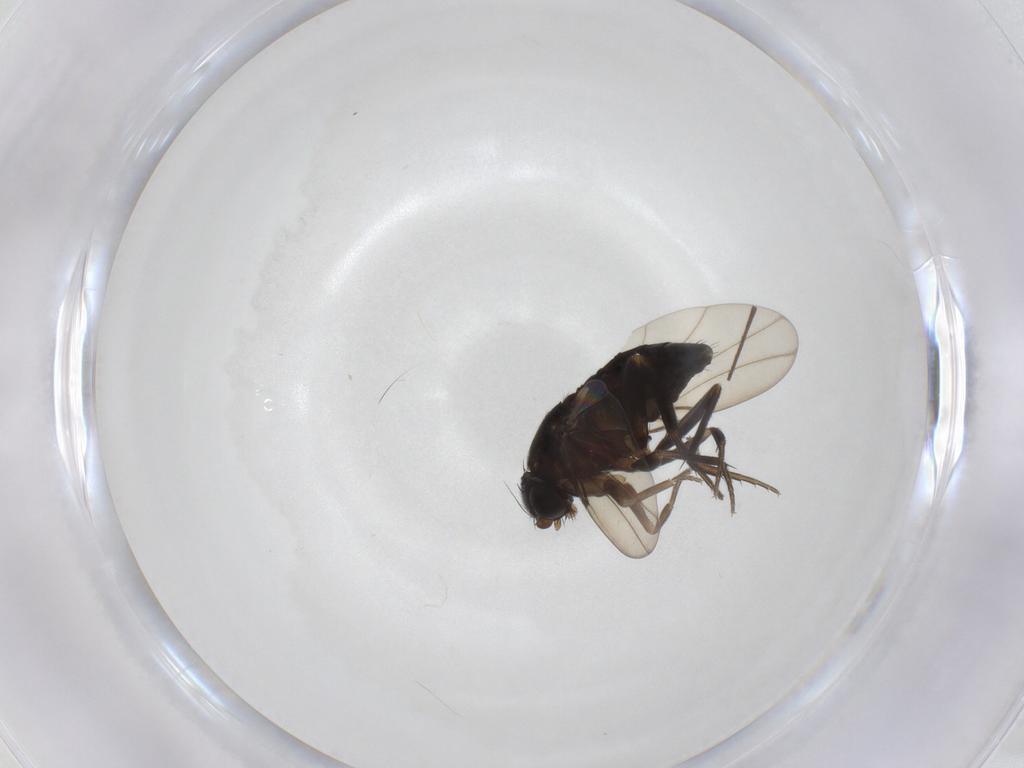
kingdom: Animalia
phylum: Arthropoda
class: Insecta
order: Diptera
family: Phoridae
